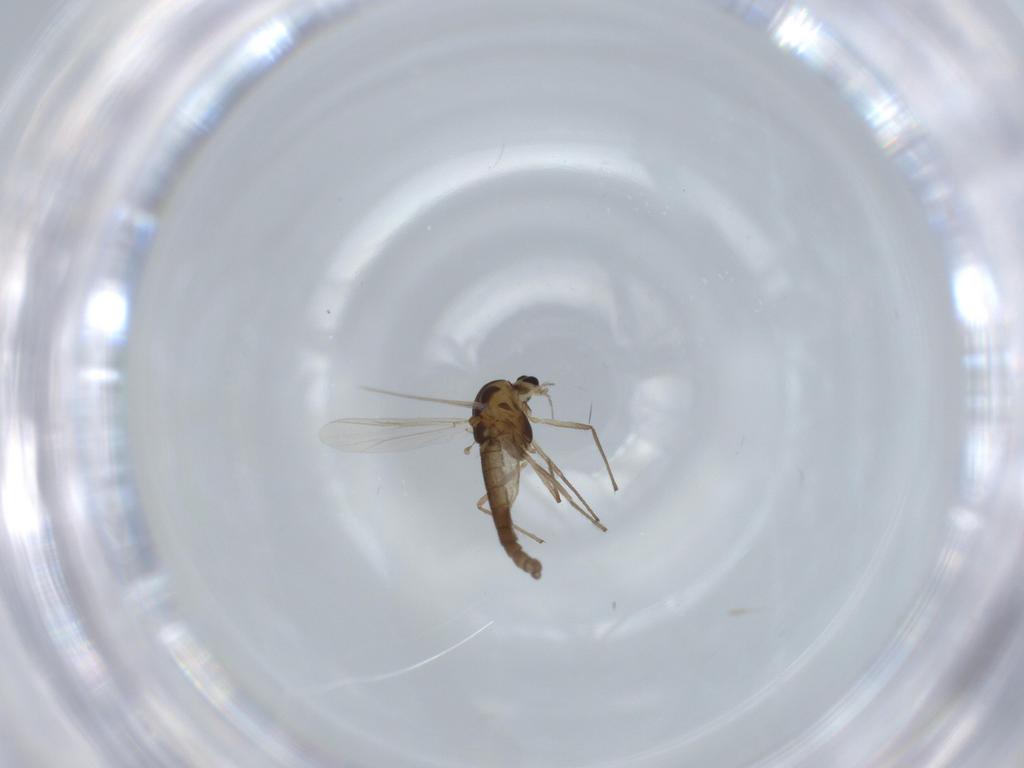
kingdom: Animalia
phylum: Arthropoda
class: Insecta
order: Diptera
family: Chironomidae
